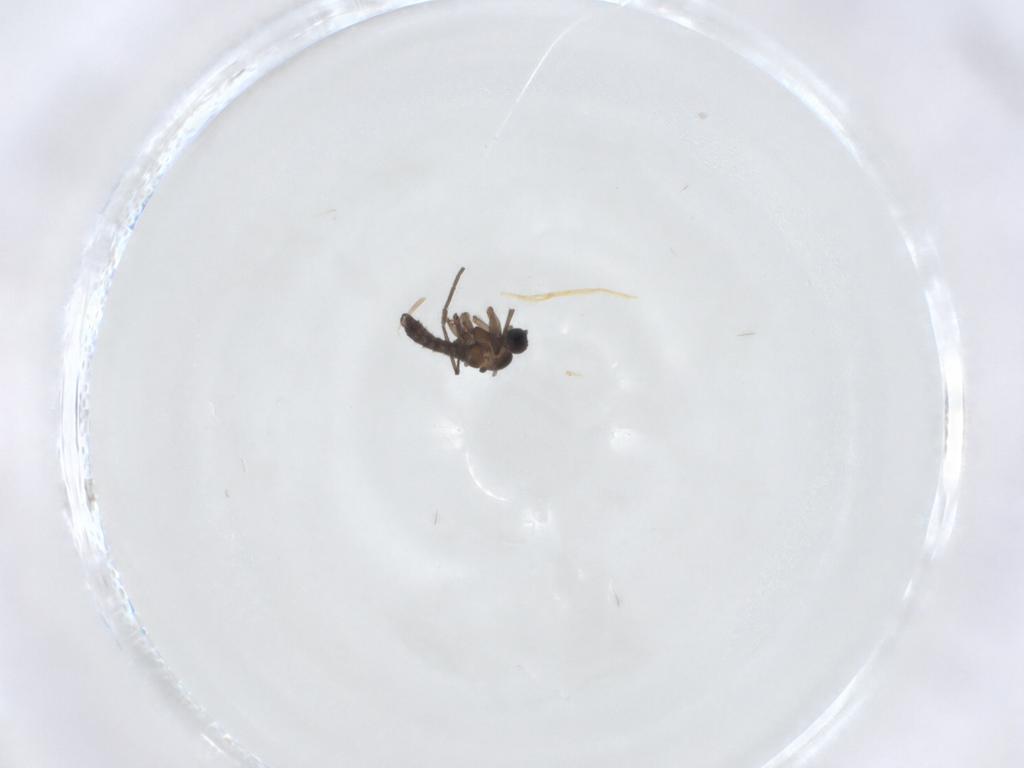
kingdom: Animalia
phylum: Arthropoda
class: Insecta
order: Diptera
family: Sciaridae
